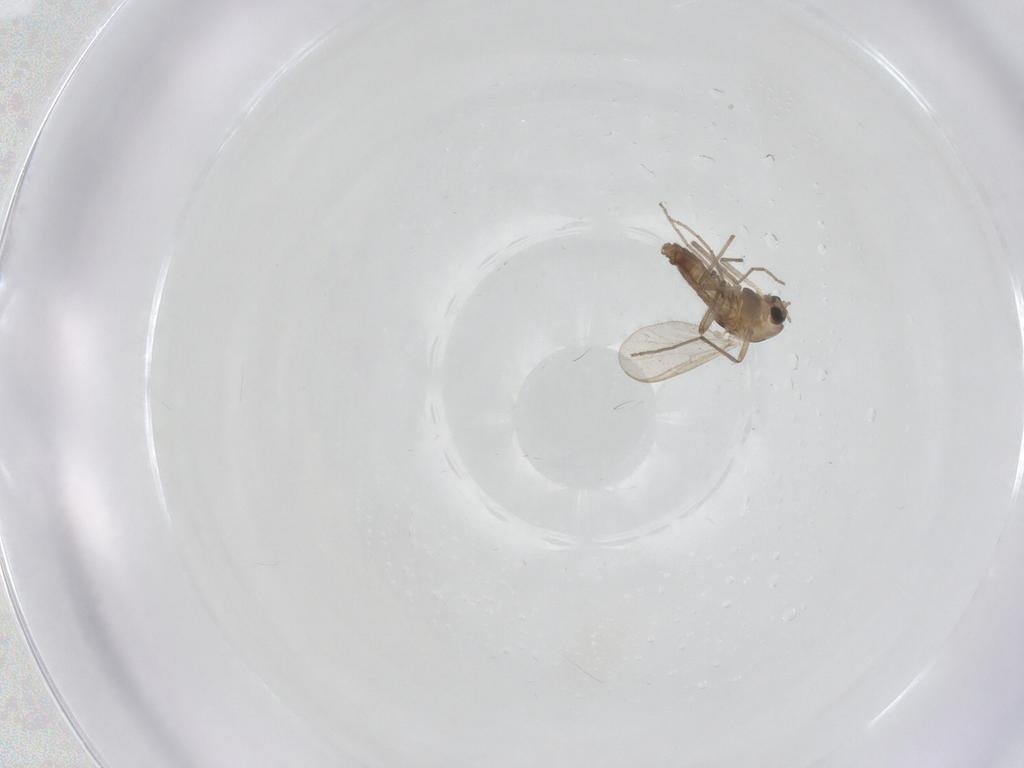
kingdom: Animalia
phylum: Arthropoda
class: Insecta
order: Diptera
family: Chironomidae
